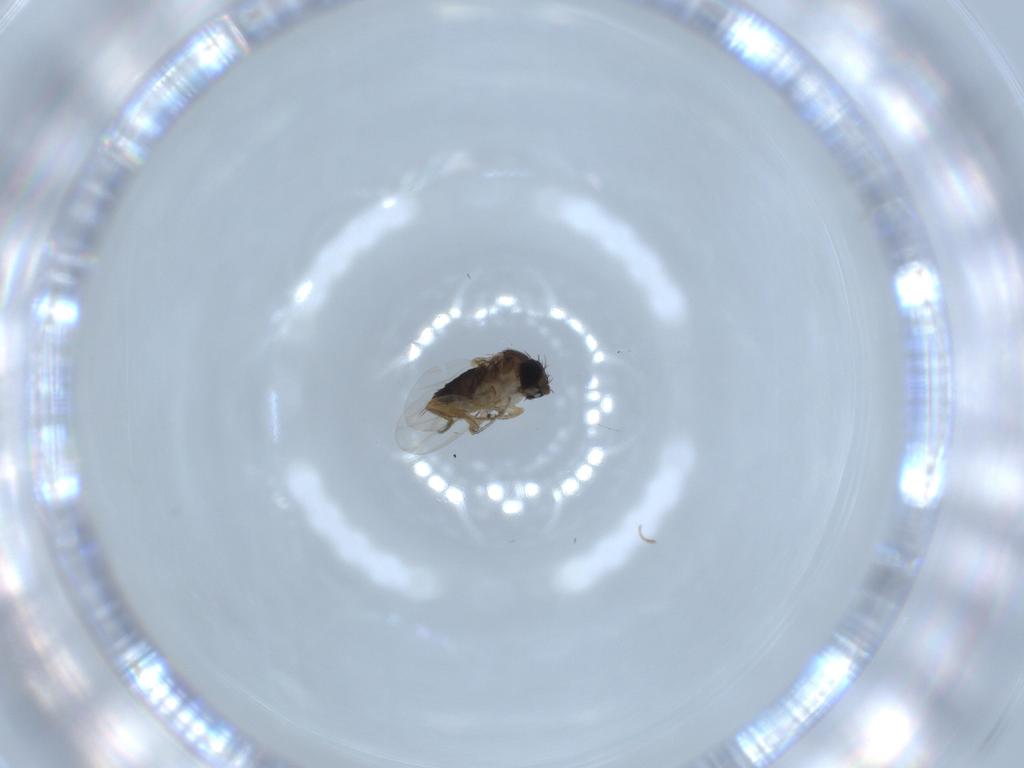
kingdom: Animalia
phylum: Arthropoda
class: Insecta
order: Diptera
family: Phoridae
